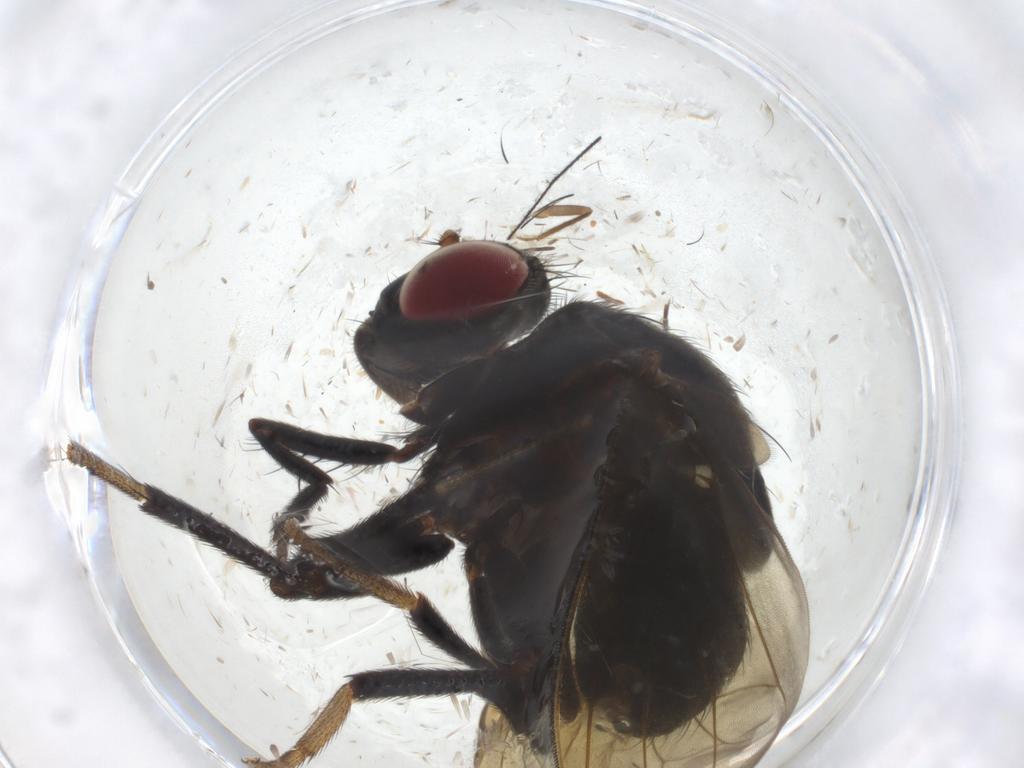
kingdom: Animalia
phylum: Arthropoda
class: Insecta
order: Diptera
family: Lauxaniidae
